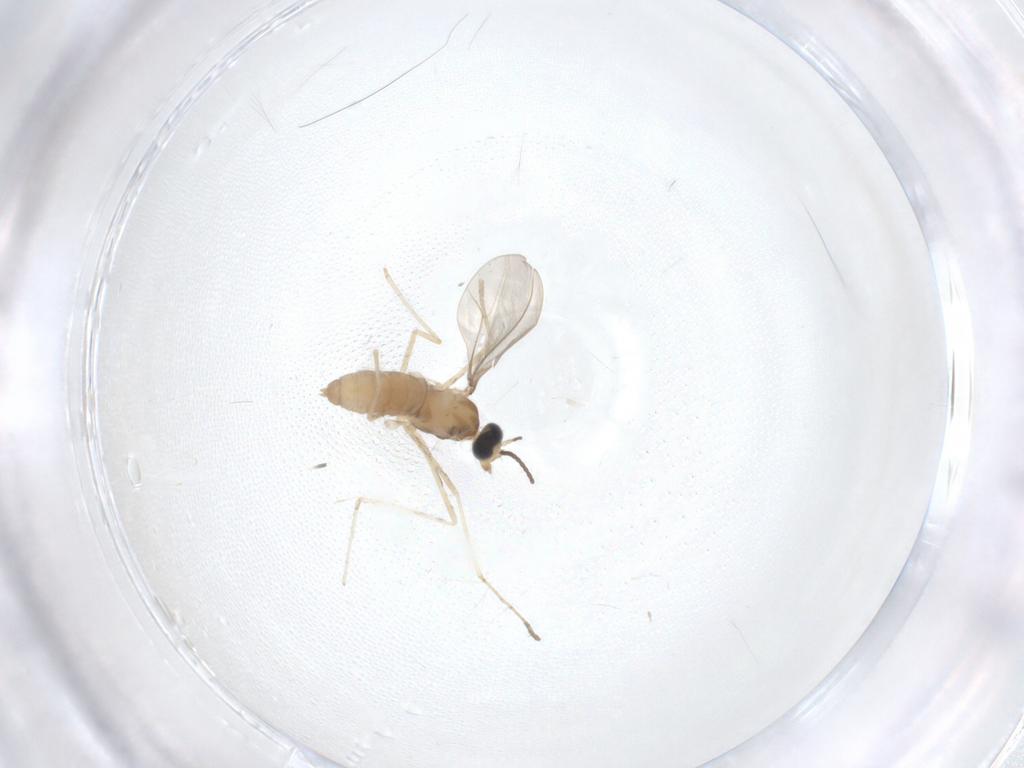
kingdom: Animalia
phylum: Arthropoda
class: Insecta
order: Diptera
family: Cecidomyiidae
